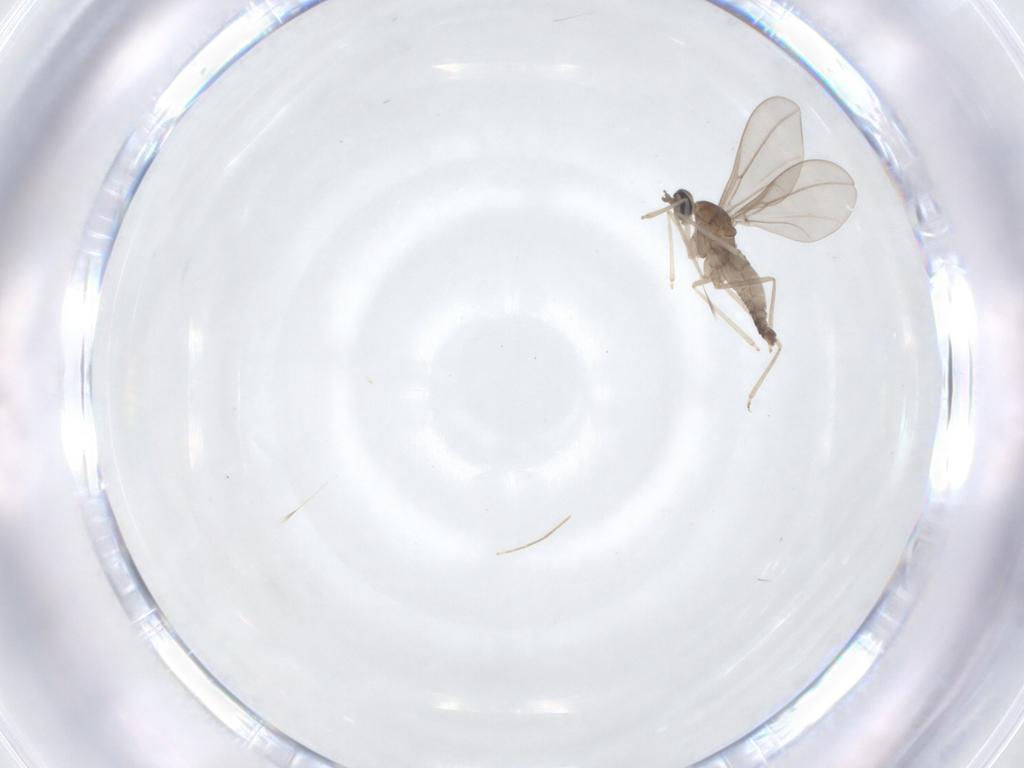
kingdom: Animalia
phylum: Arthropoda
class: Insecta
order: Diptera
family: Cecidomyiidae
